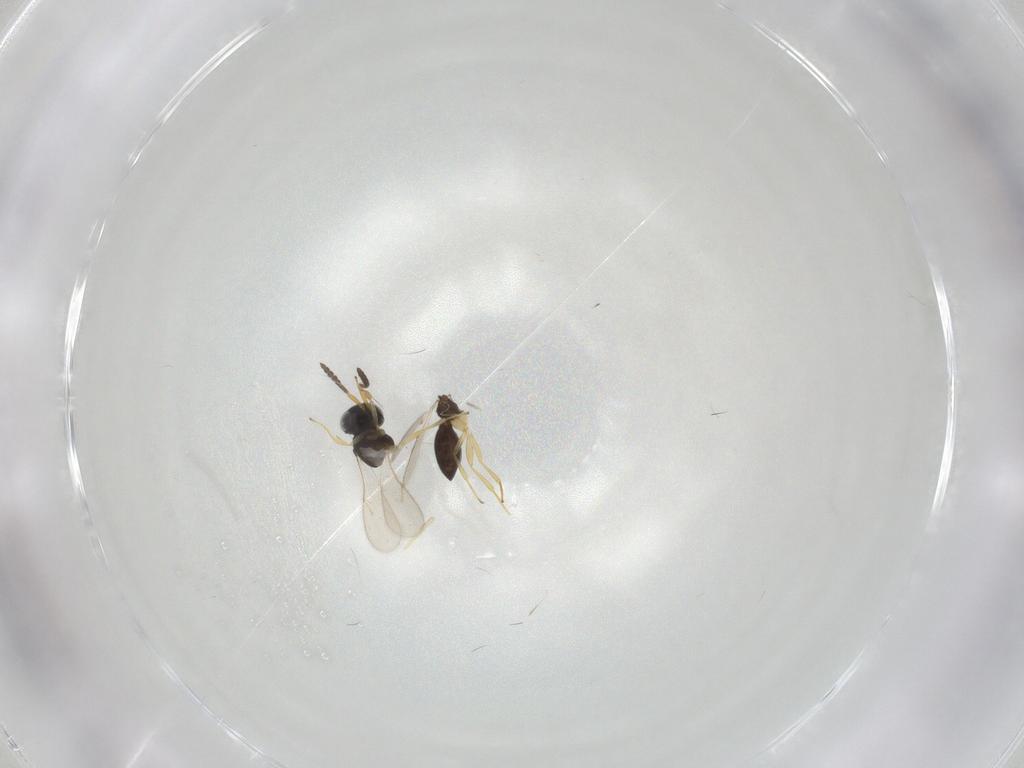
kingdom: Animalia
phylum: Arthropoda
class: Insecta
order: Hymenoptera
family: Scelionidae
